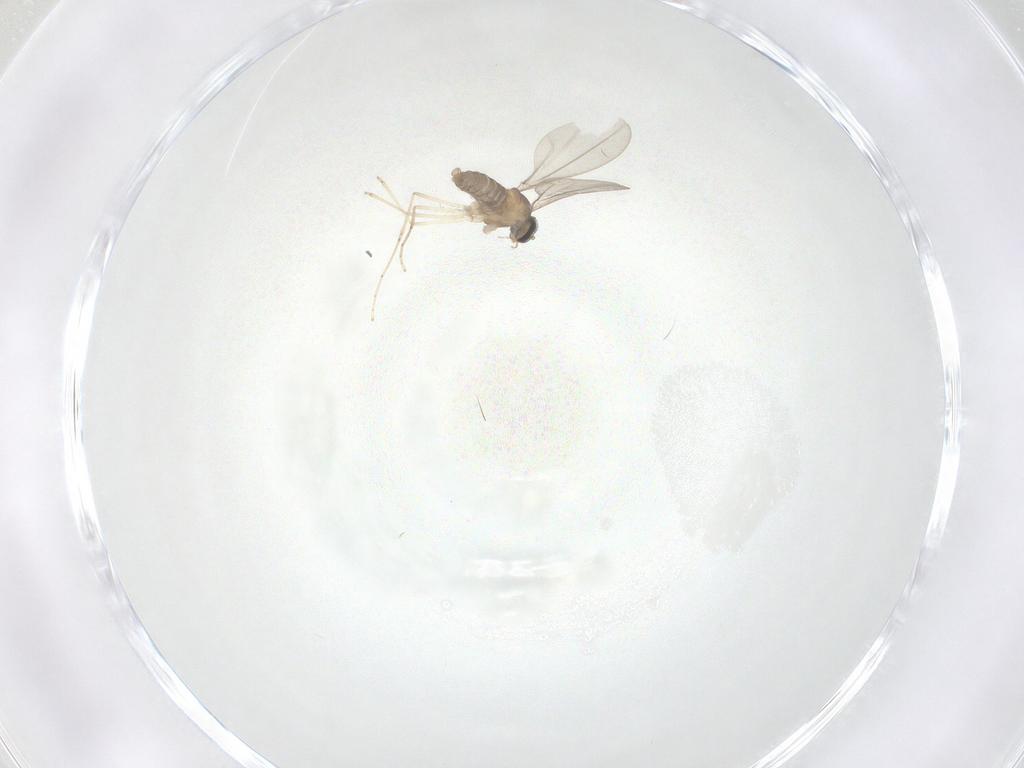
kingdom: Animalia
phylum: Arthropoda
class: Insecta
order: Diptera
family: Cecidomyiidae
